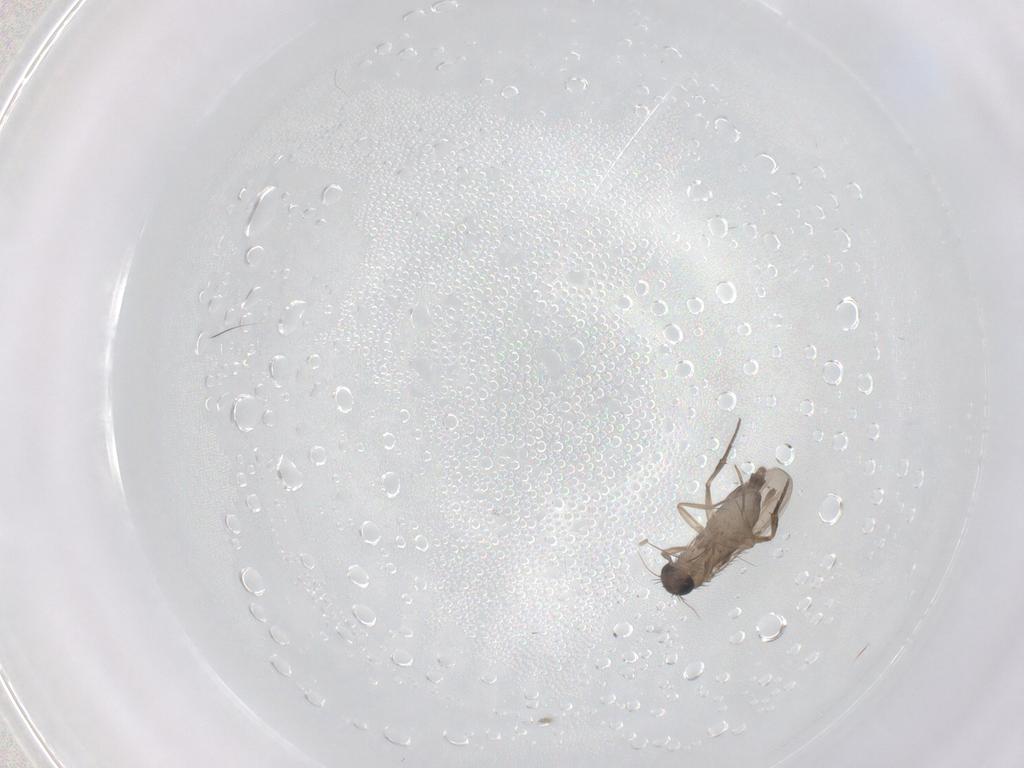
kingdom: Animalia
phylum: Arthropoda
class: Insecta
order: Diptera
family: Phoridae
